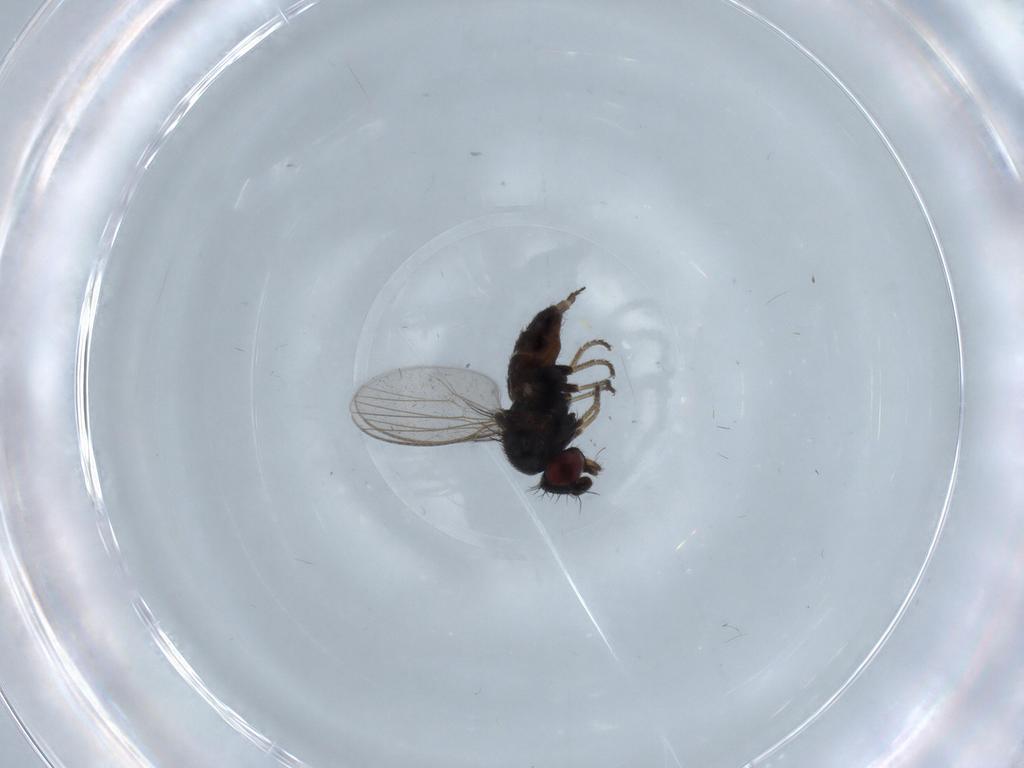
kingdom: Animalia
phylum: Arthropoda
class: Insecta
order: Diptera
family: Milichiidae
